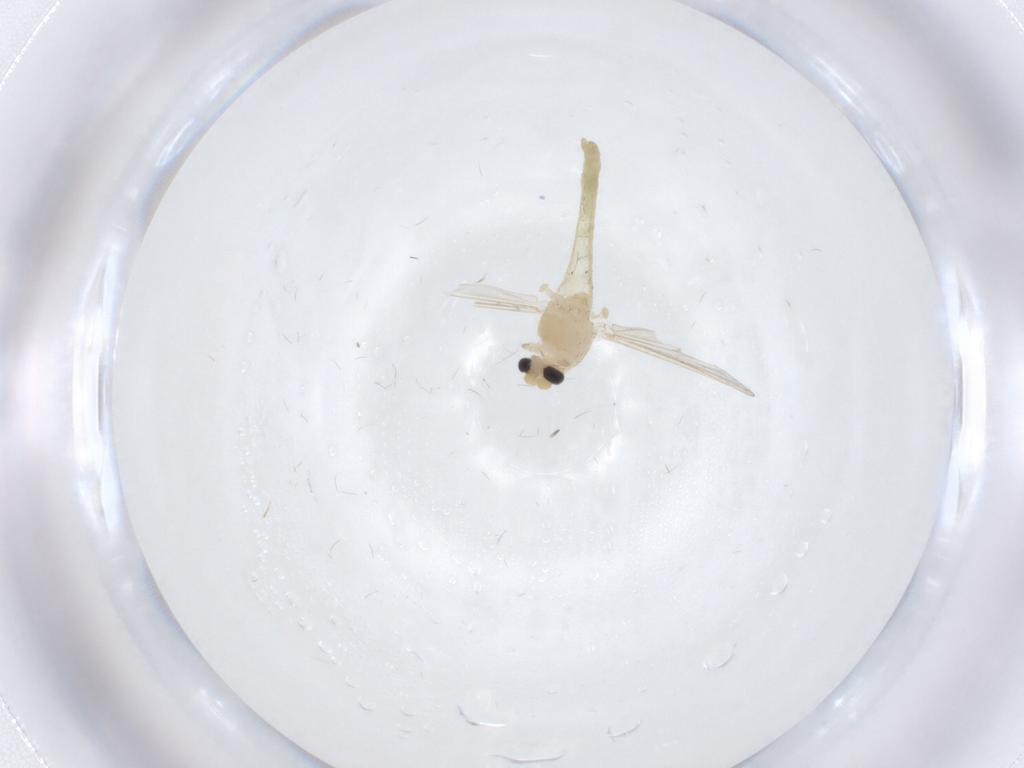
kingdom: Animalia
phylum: Arthropoda
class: Insecta
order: Diptera
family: Chironomidae
